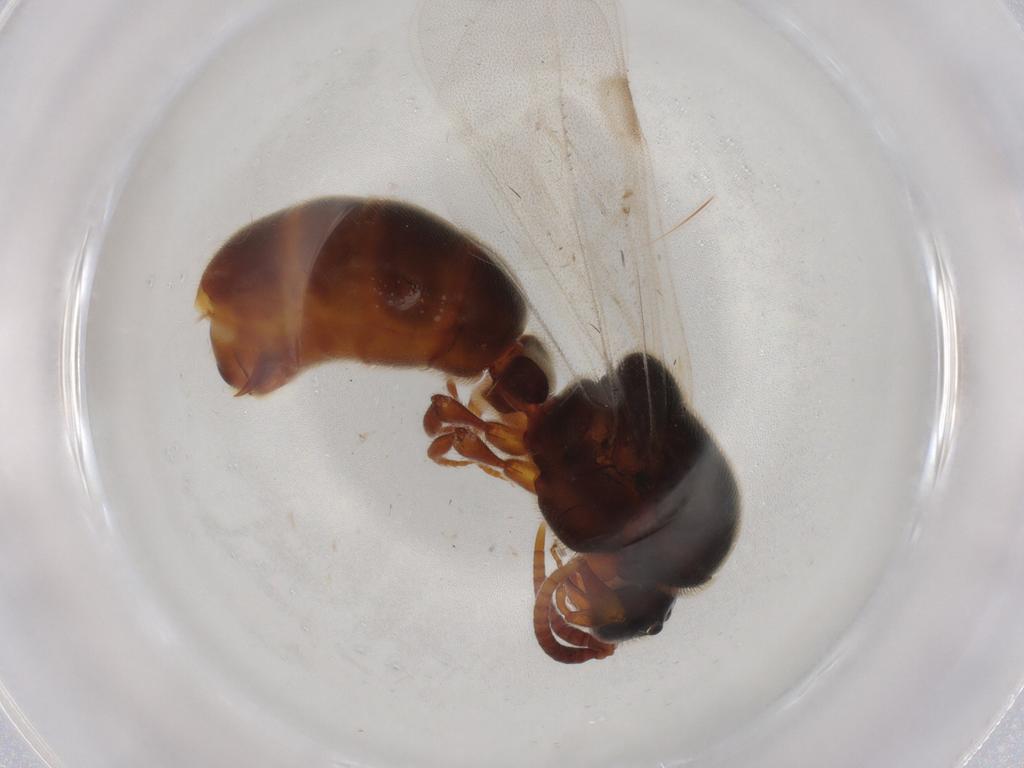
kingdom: Animalia
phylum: Arthropoda
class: Insecta
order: Hymenoptera
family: Formicidae
